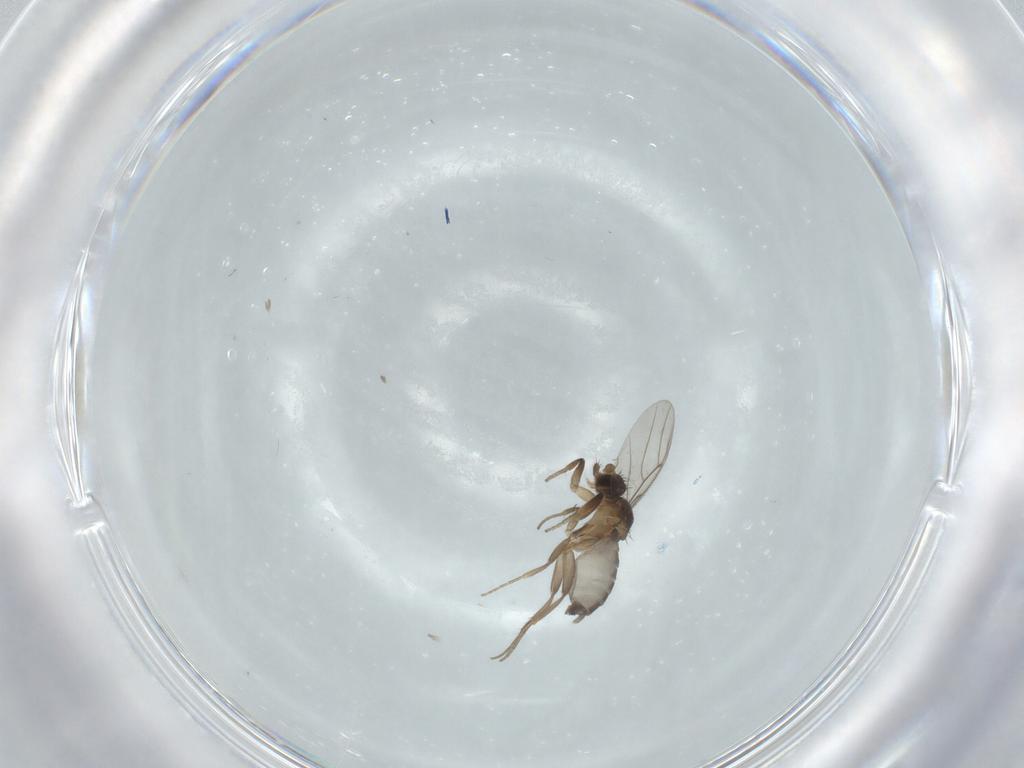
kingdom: Animalia
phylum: Arthropoda
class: Insecta
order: Diptera
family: Phoridae
